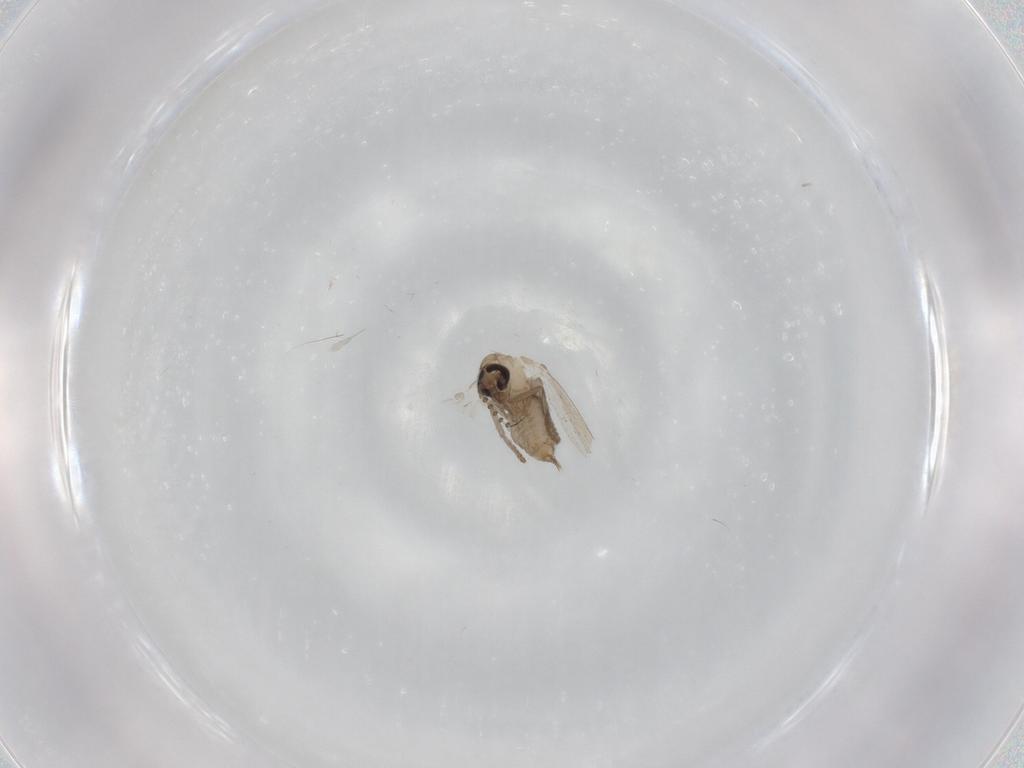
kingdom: Animalia
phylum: Arthropoda
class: Insecta
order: Diptera
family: Psychodidae
